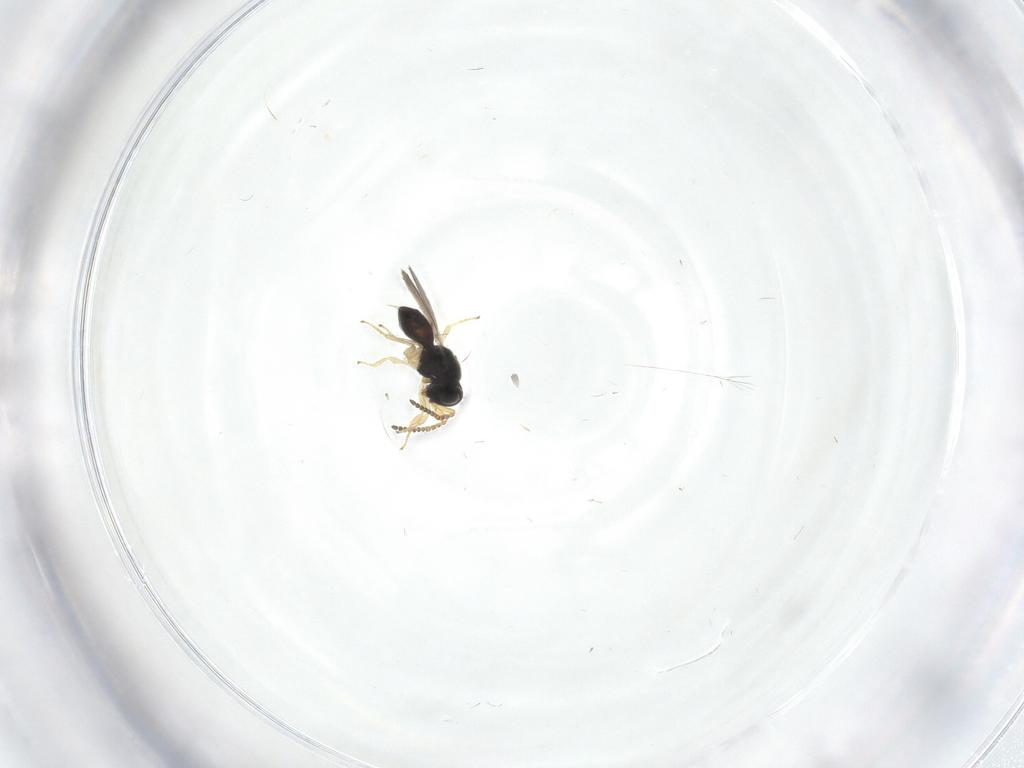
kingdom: Animalia
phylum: Arthropoda
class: Insecta
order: Hymenoptera
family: Scelionidae
